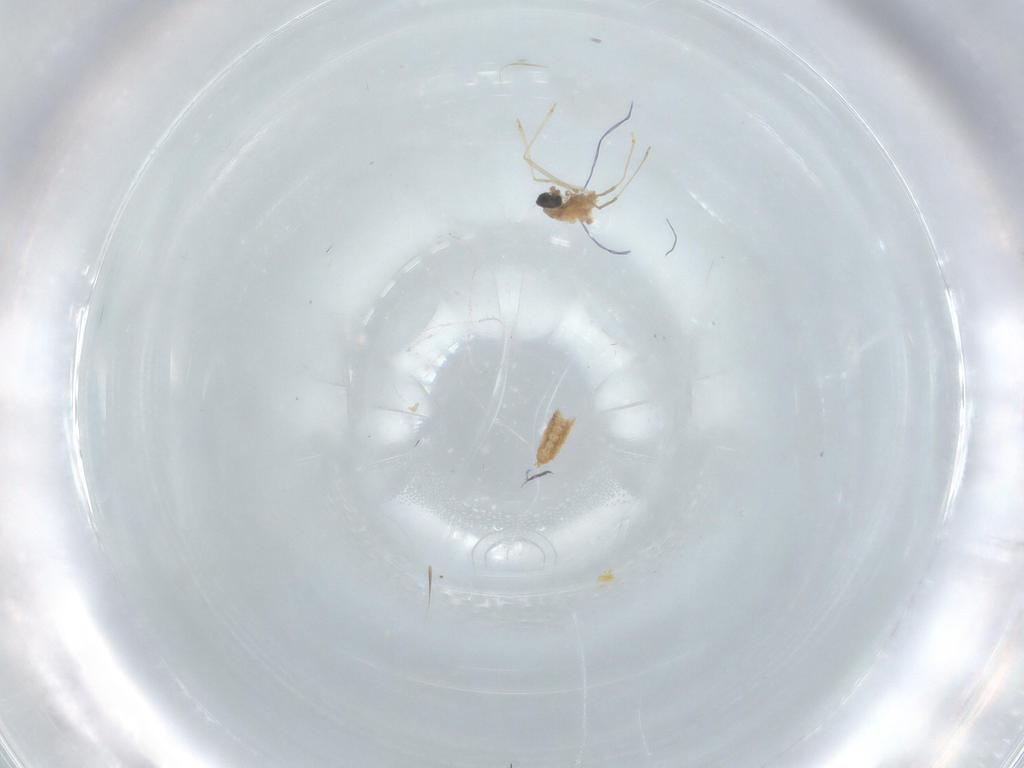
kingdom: Animalia
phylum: Arthropoda
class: Insecta
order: Diptera
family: Cecidomyiidae
